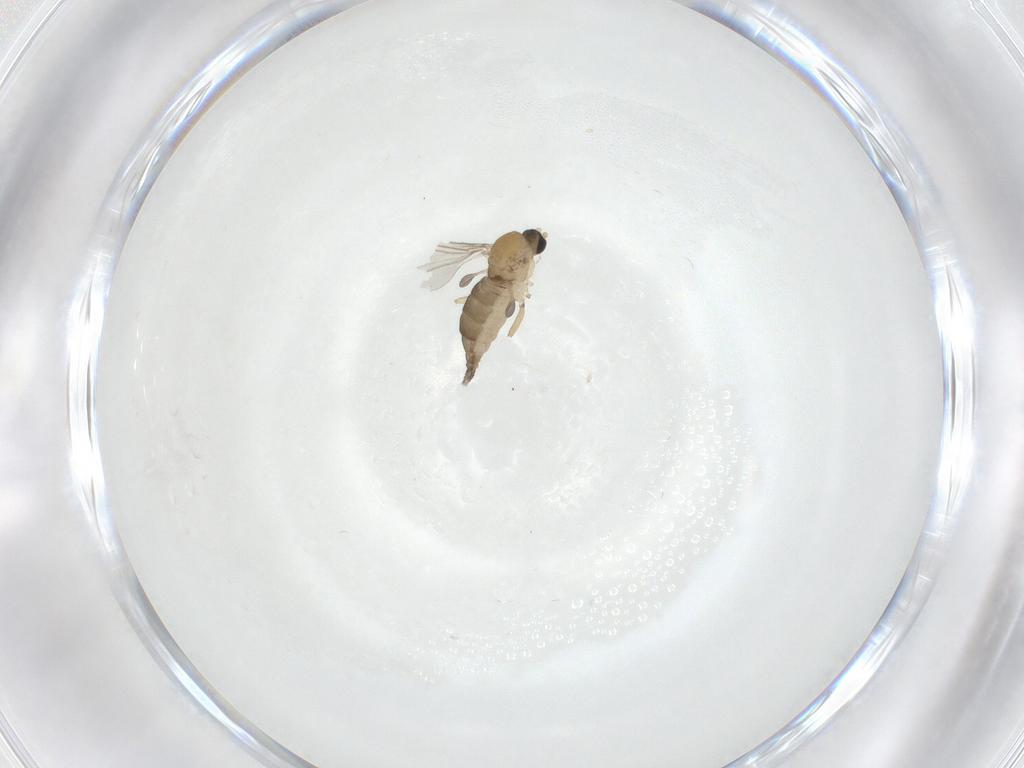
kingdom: Animalia
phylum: Arthropoda
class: Insecta
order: Diptera
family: Sciaridae
